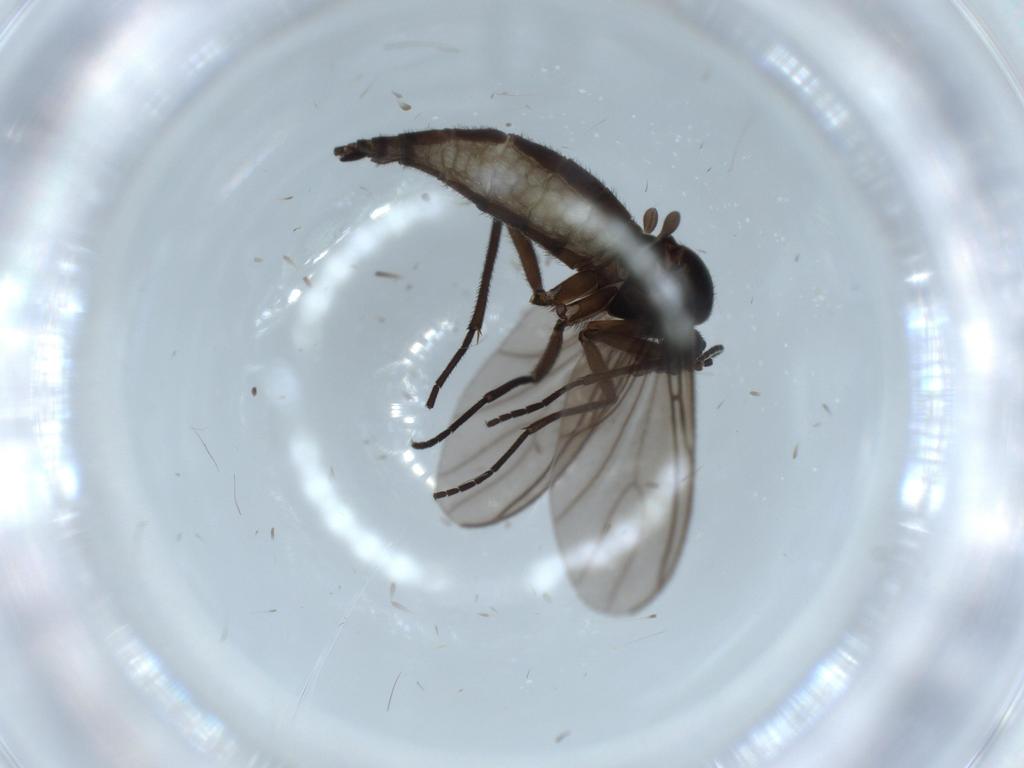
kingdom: Animalia
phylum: Arthropoda
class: Insecta
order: Diptera
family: Sciaridae
